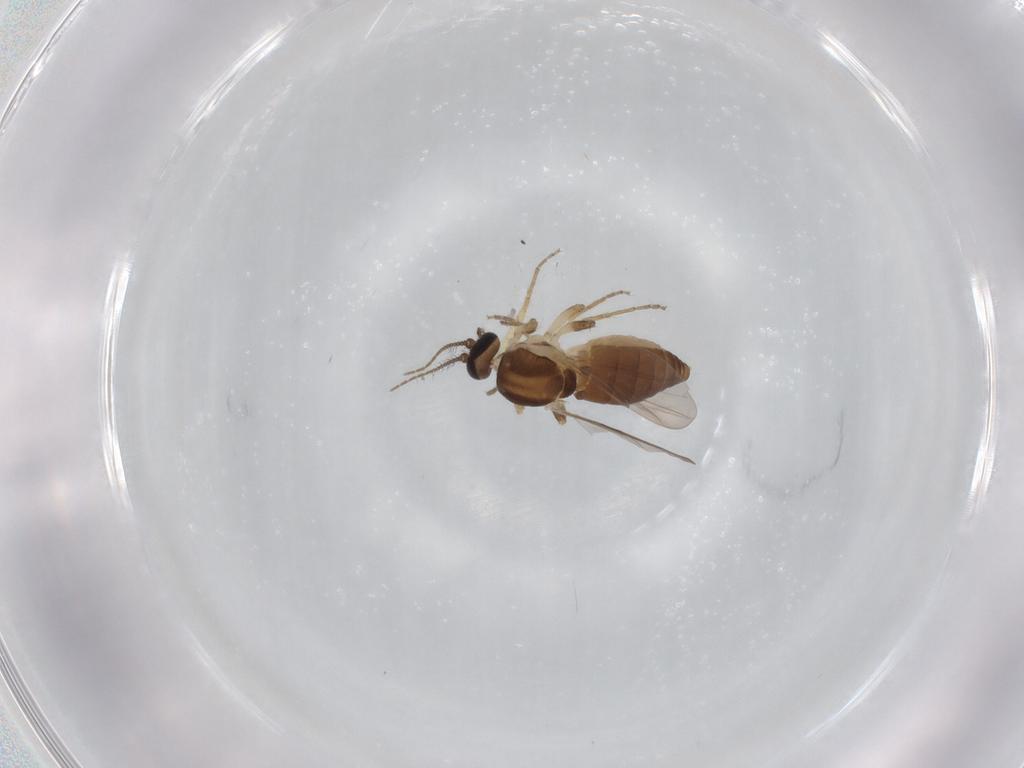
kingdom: Animalia
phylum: Arthropoda
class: Insecta
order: Diptera
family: Ceratopogonidae
